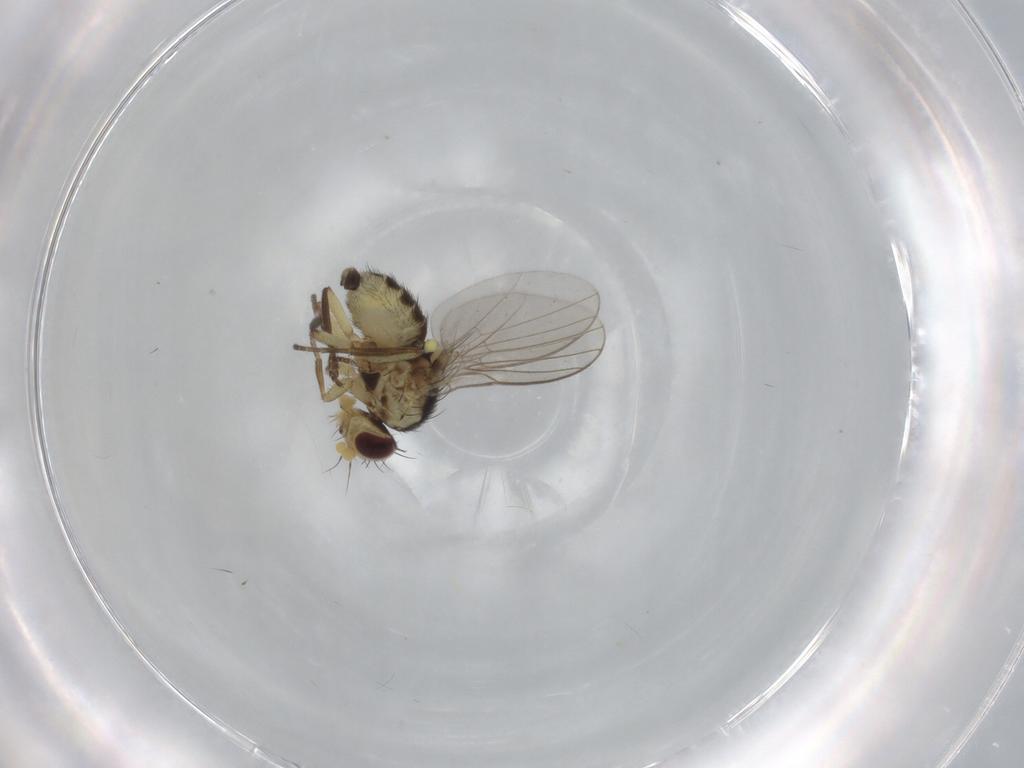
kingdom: Animalia
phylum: Arthropoda
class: Insecta
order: Diptera
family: Agromyzidae
